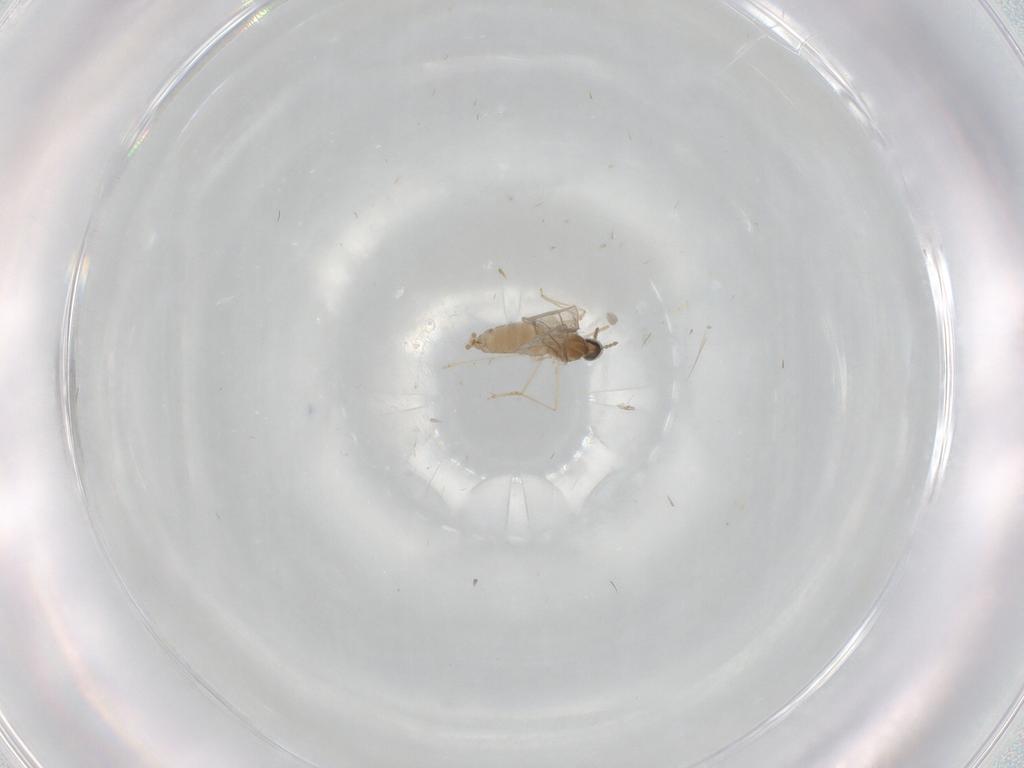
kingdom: Animalia
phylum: Arthropoda
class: Insecta
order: Diptera
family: Cecidomyiidae
